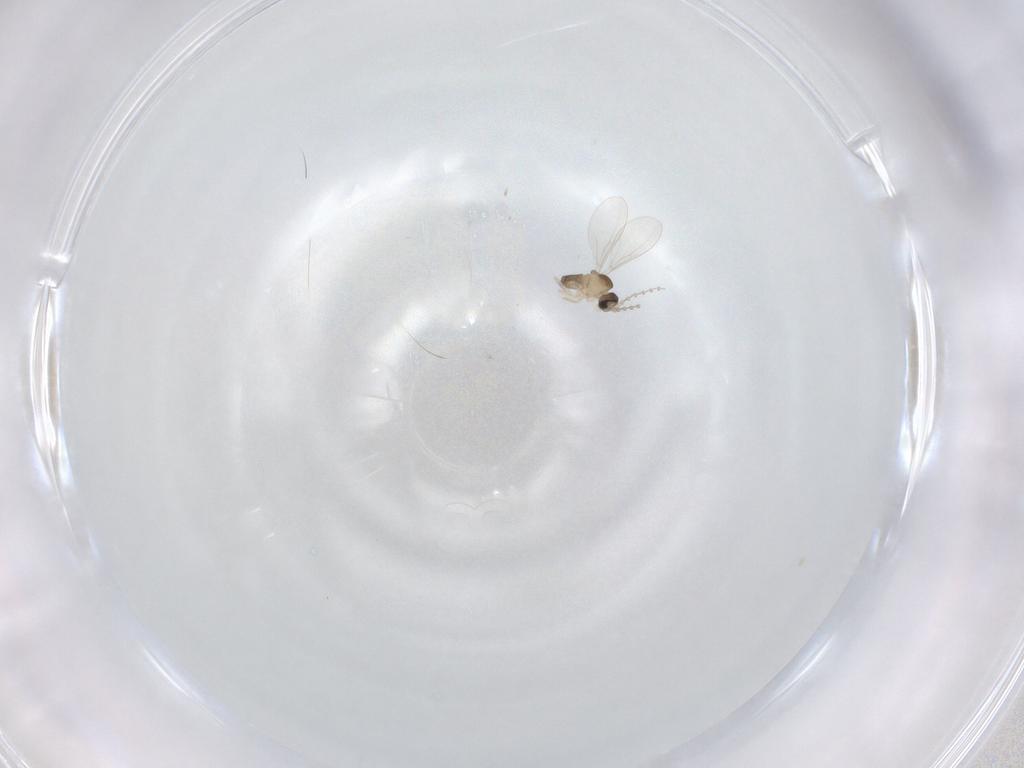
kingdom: Animalia
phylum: Arthropoda
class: Insecta
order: Diptera
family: Cecidomyiidae
